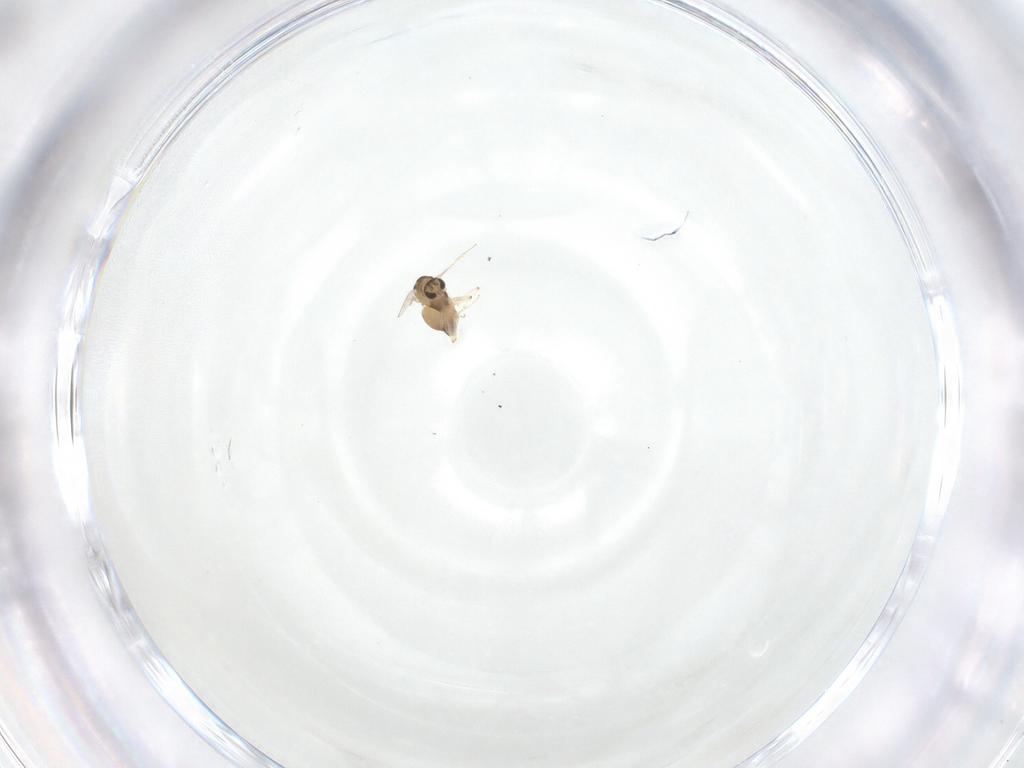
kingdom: Animalia
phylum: Arthropoda
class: Insecta
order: Diptera
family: Chironomidae
